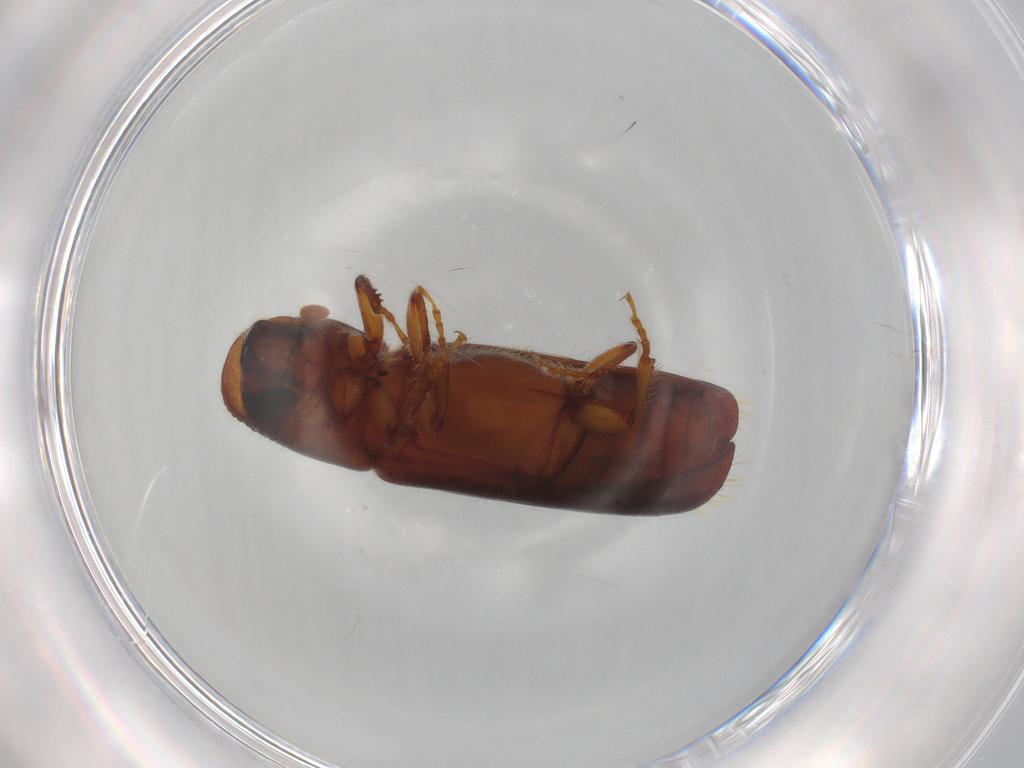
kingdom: Animalia
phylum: Arthropoda
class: Insecta
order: Coleoptera
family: Curculionidae
